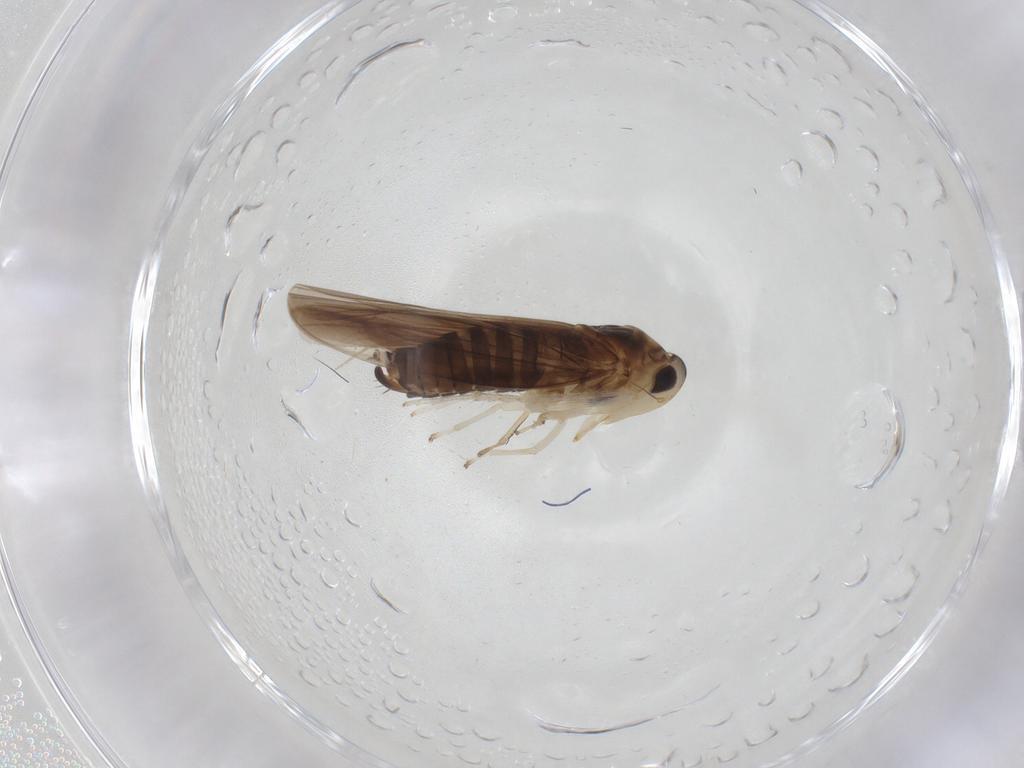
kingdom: Animalia
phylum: Arthropoda
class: Insecta
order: Hemiptera
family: Cicadellidae
